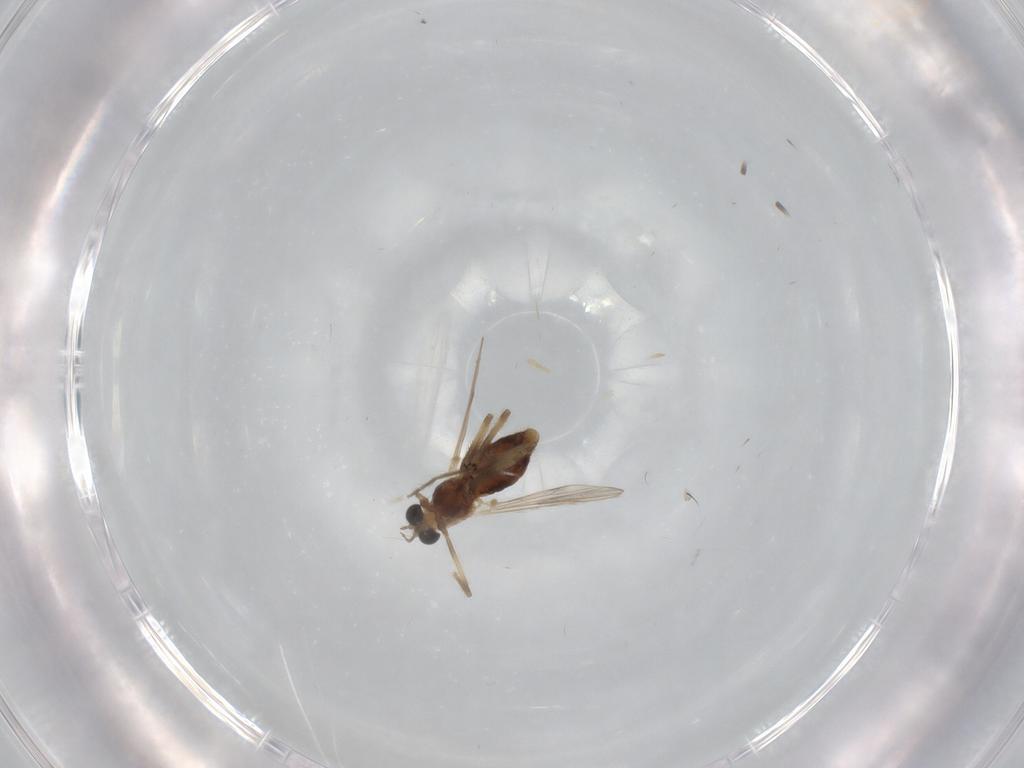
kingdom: Animalia
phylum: Arthropoda
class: Insecta
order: Diptera
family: Chironomidae
